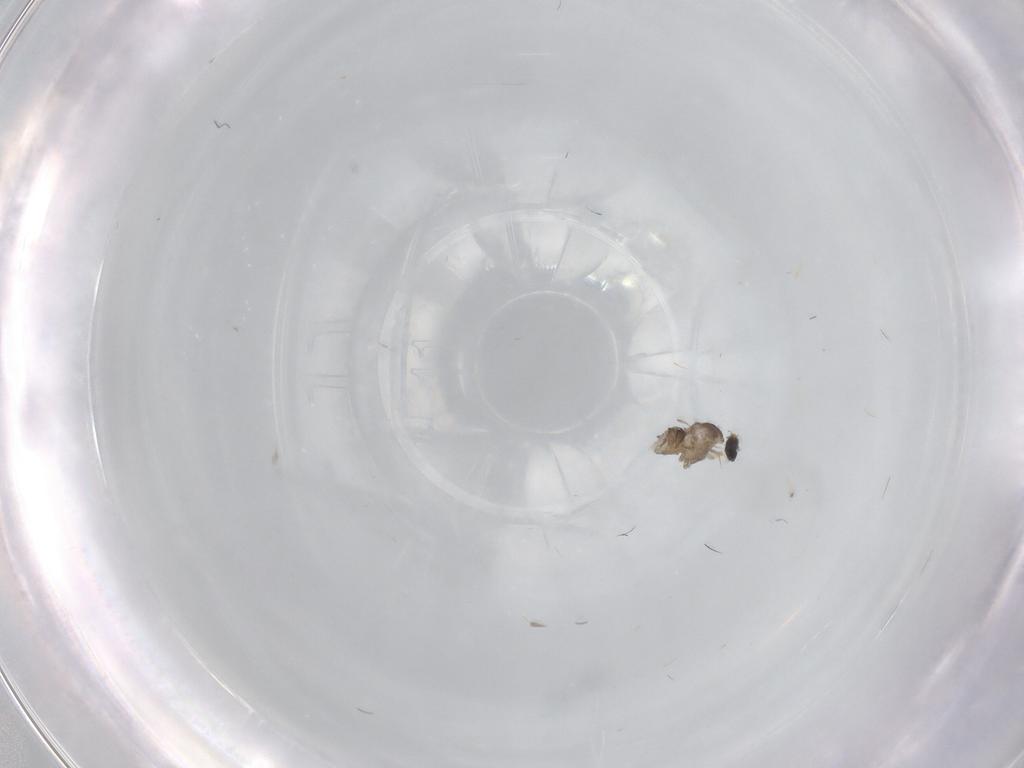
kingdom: Animalia
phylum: Arthropoda
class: Insecta
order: Diptera
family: Cecidomyiidae
